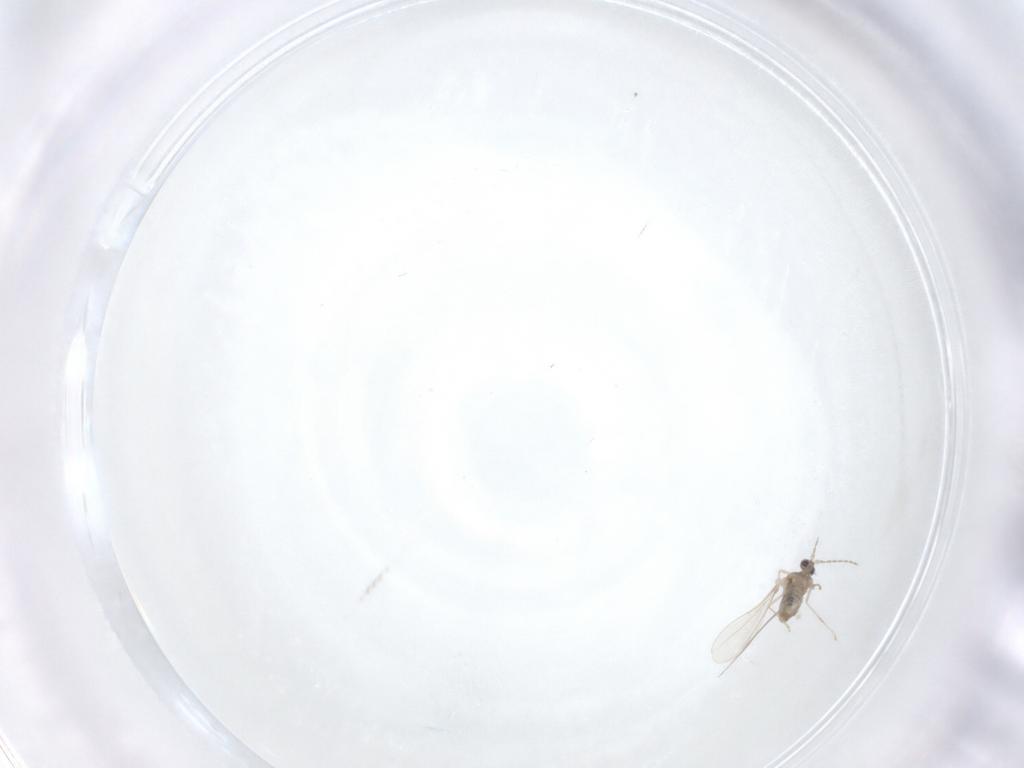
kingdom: Animalia
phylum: Arthropoda
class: Insecta
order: Diptera
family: Cecidomyiidae
